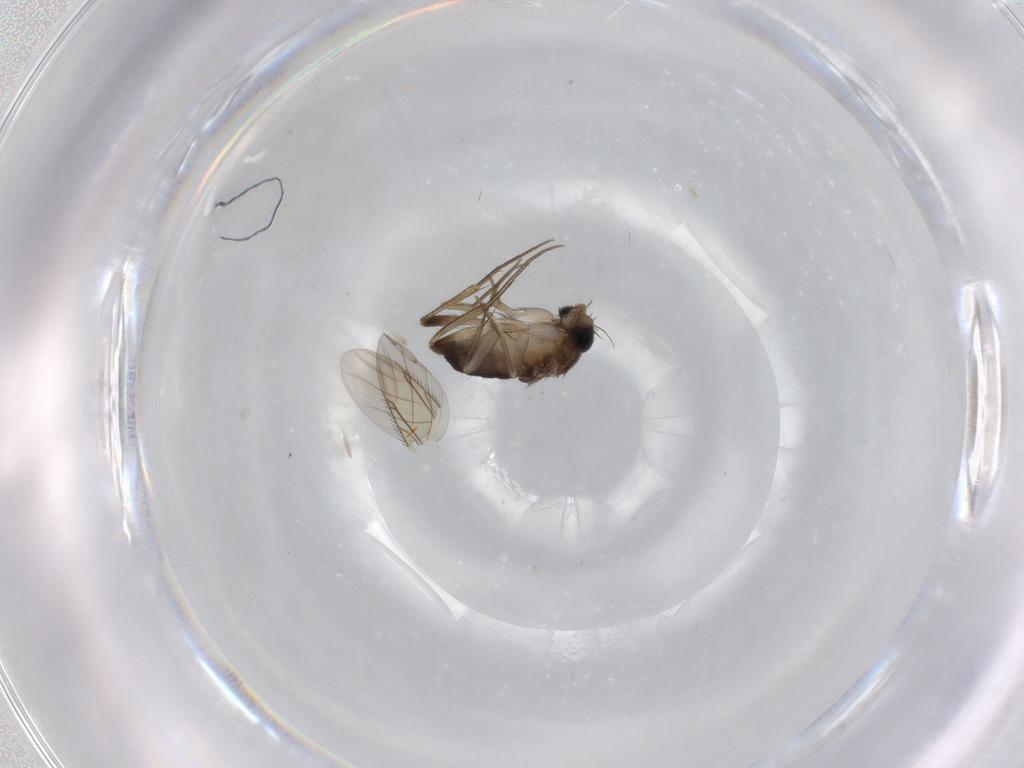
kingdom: Animalia
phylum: Arthropoda
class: Insecta
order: Diptera
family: Phoridae
